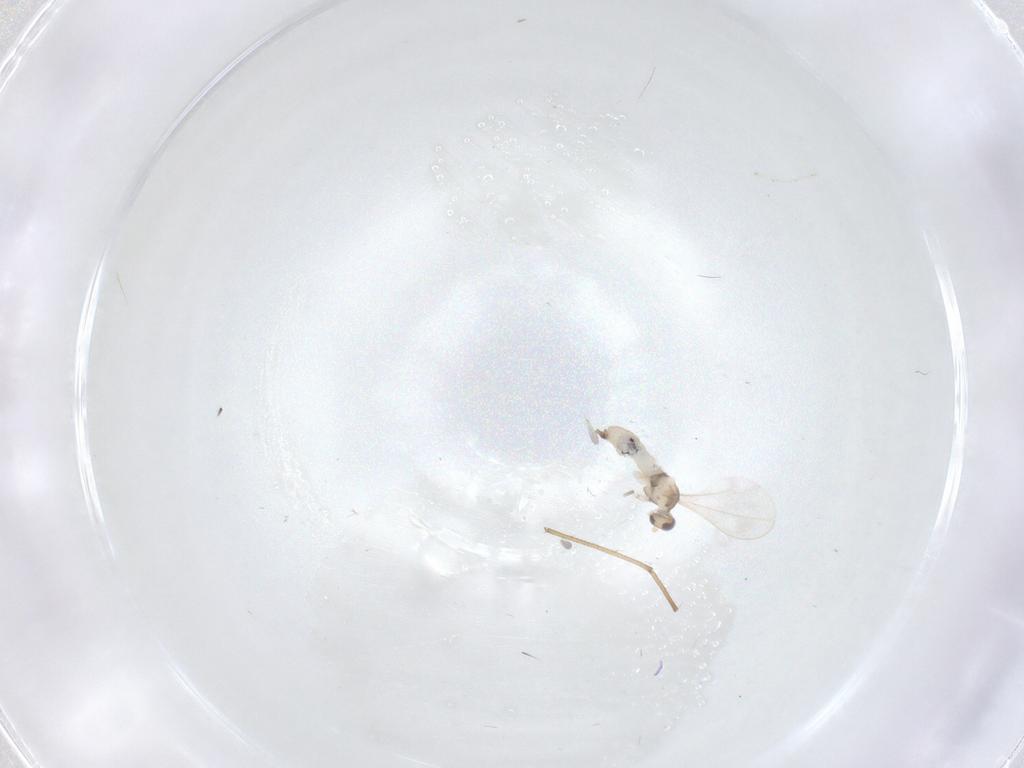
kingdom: Animalia
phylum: Arthropoda
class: Insecta
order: Diptera
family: Cecidomyiidae
